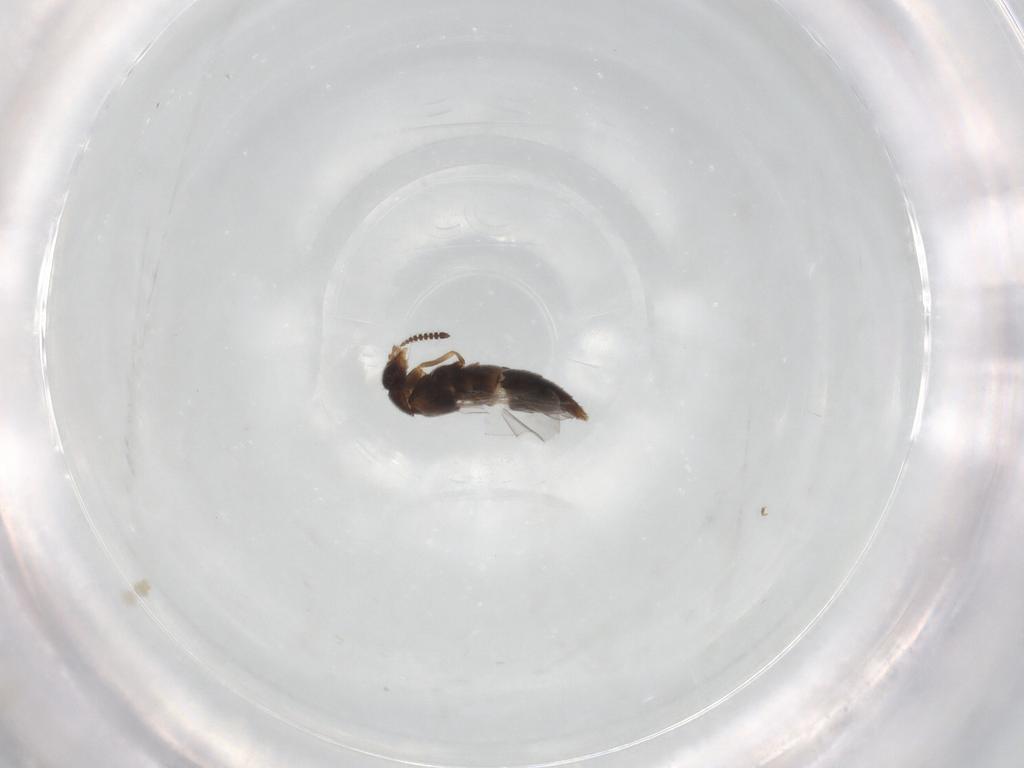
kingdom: Animalia
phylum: Arthropoda
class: Insecta
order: Coleoptera
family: Staphylinidae
